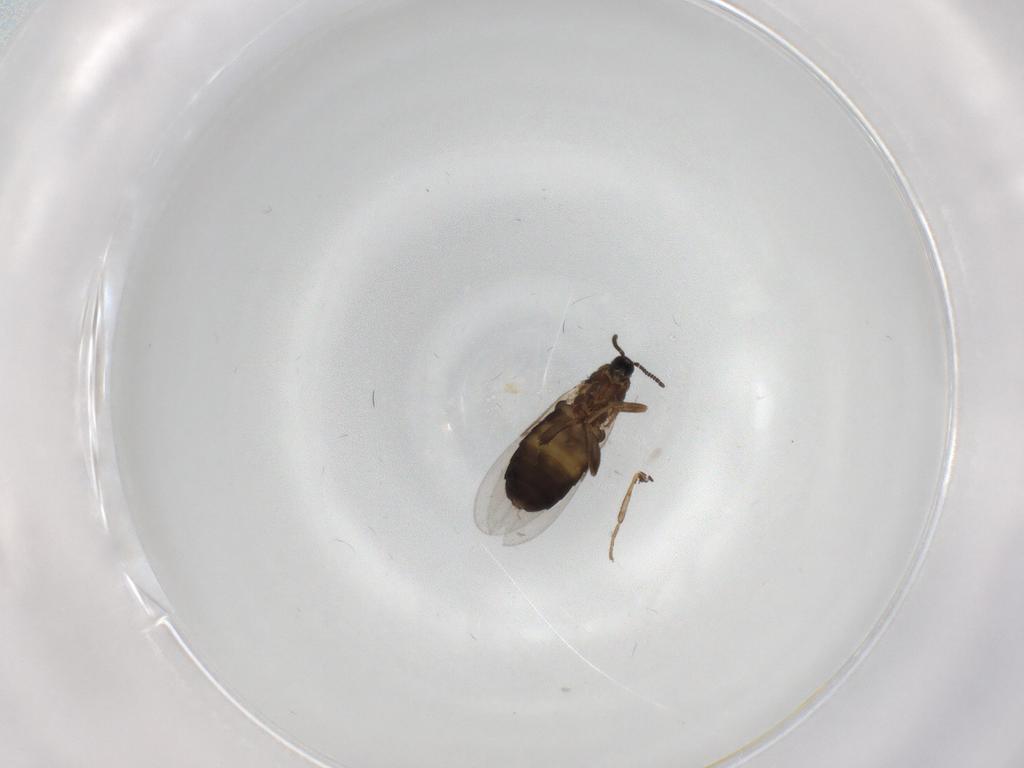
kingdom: Animalia
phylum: Arthropoda
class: Insecta
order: Diptera
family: Scatopsidae
